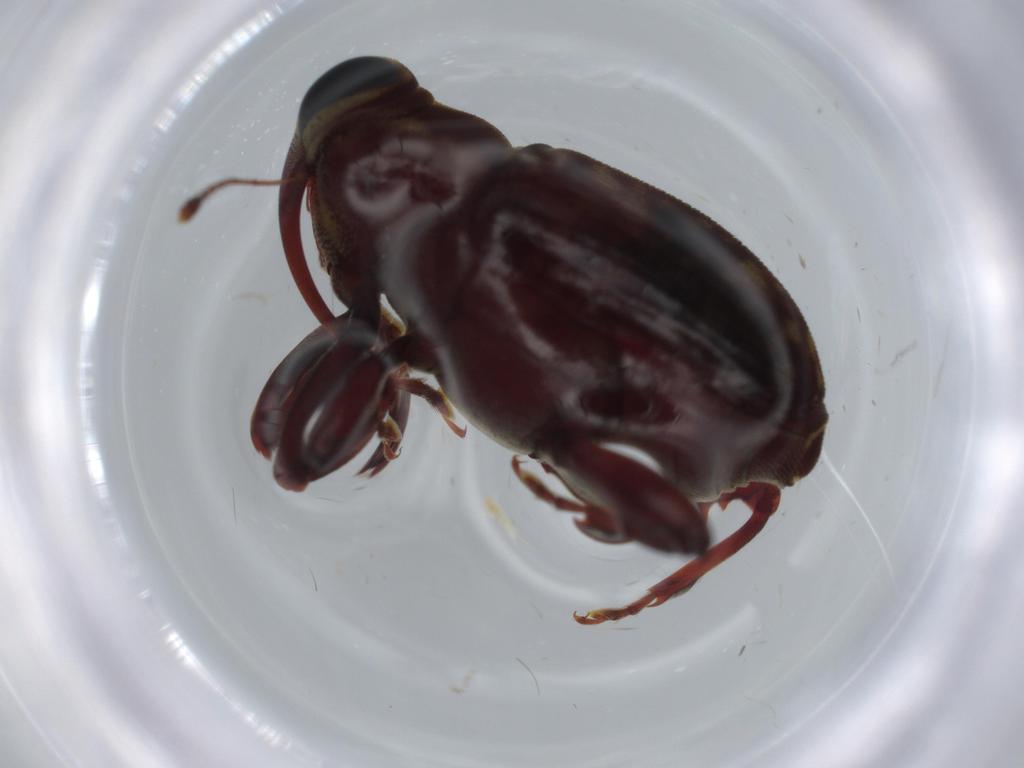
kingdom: Animalia
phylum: Arthropoda
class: Insecta
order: Coleoptera
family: Curculionidae
